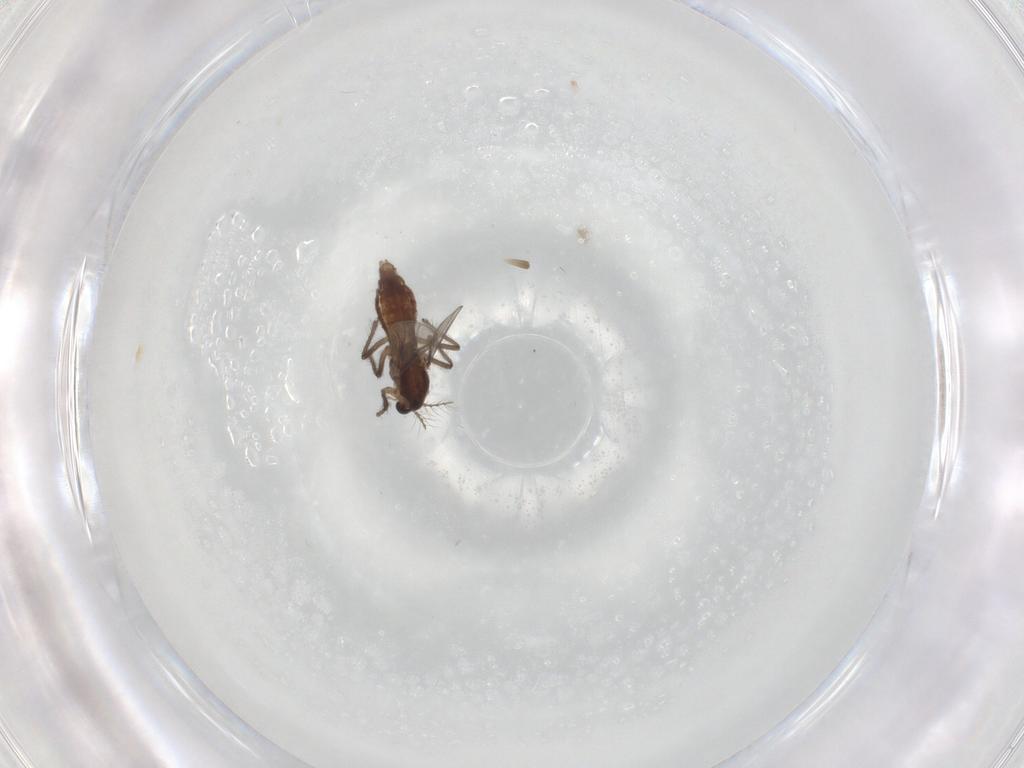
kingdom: Animalia
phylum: Arthropoda
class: Insecta
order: Diptera
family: Chironomidae
